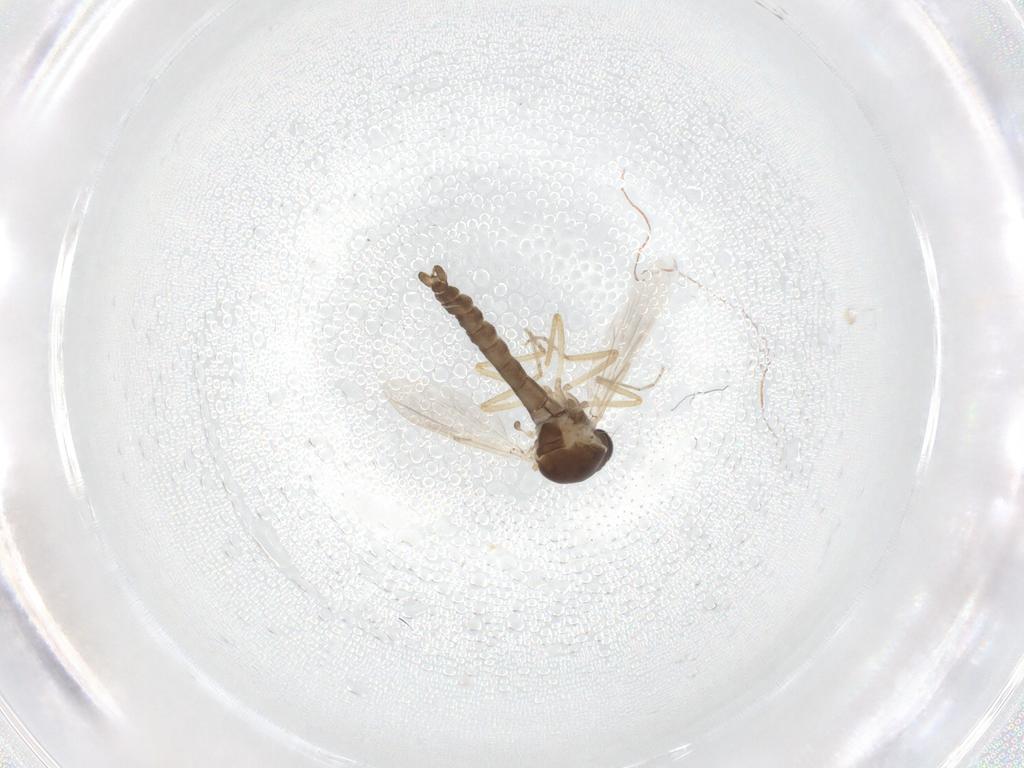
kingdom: Animalia
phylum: Arthropoda
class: Insecta
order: Diptera
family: Ceratopogonidae
